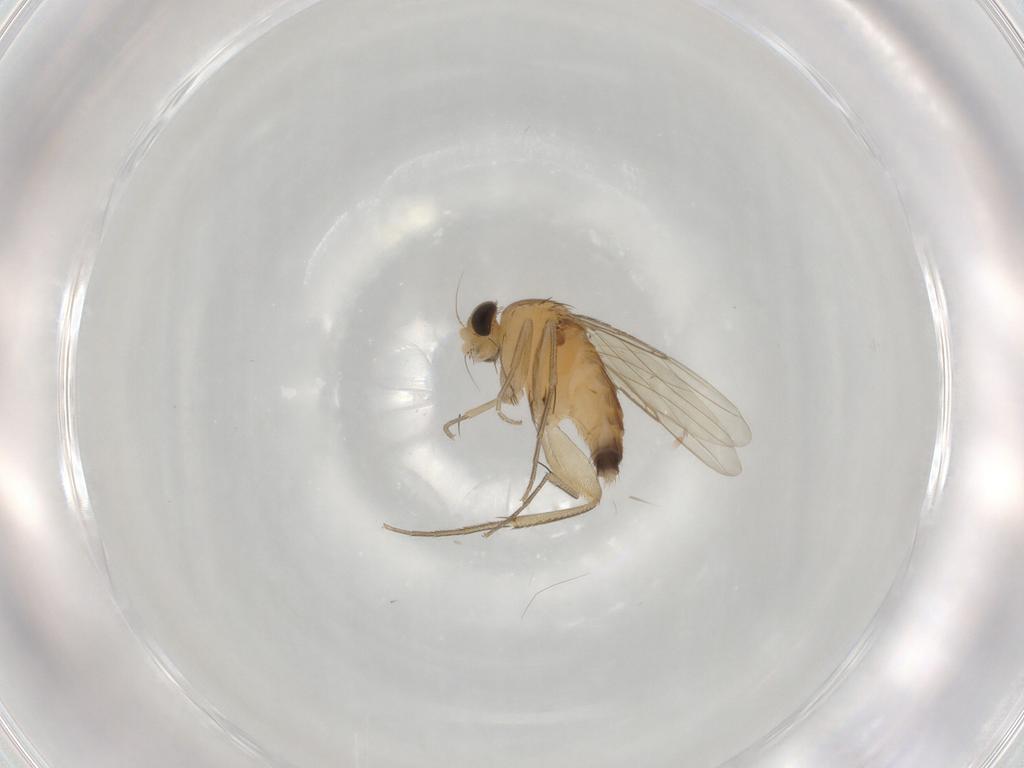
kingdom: Animalia
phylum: Arthropoda
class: Insecta
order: Diptera
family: Phoridae
